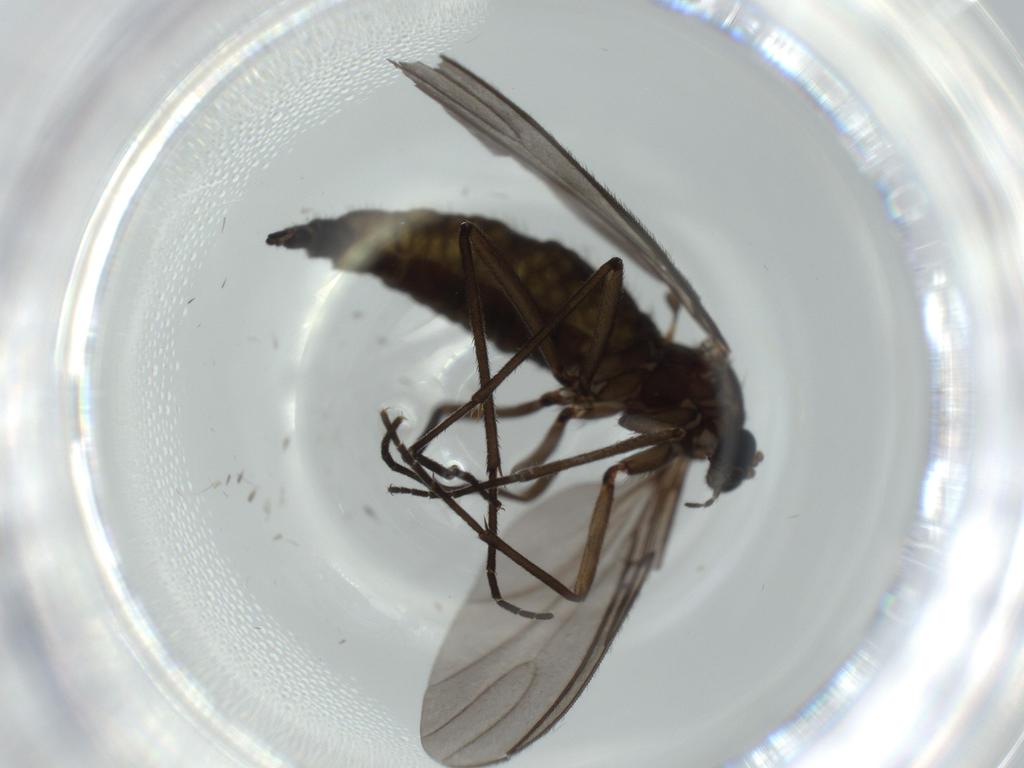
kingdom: Animalia
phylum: Arthropoda
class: Insecta
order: Diptera
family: Sciaridae
